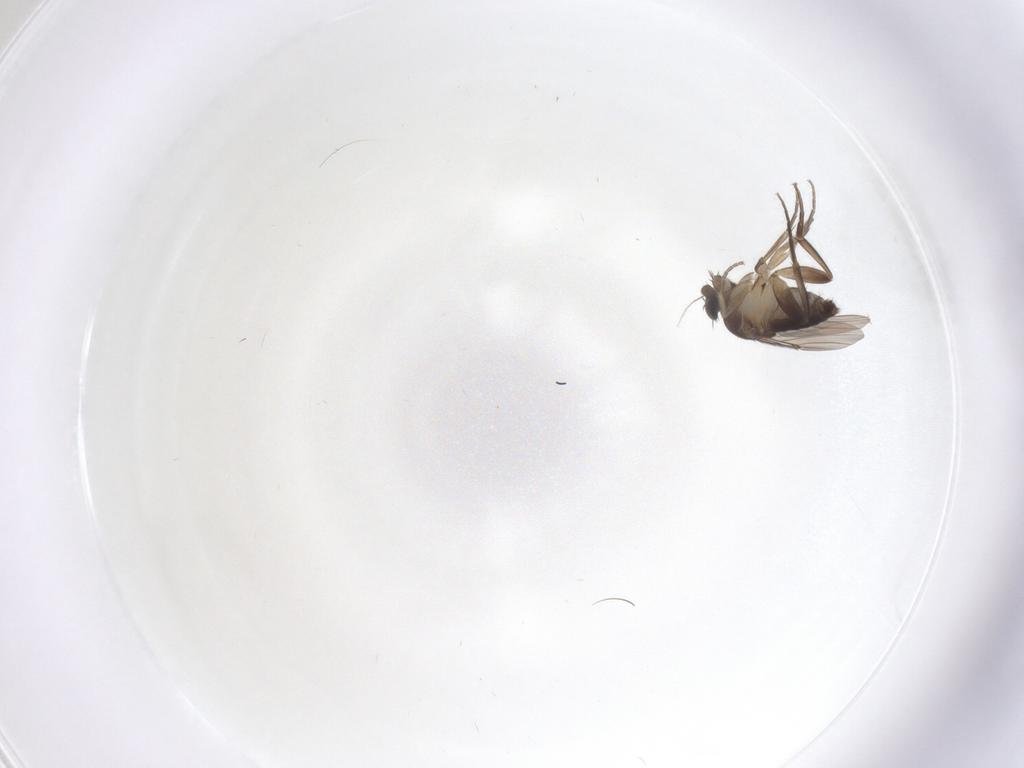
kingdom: Animalia
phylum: Arthropoda
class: Insecta
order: Diptera
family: Phoridae
